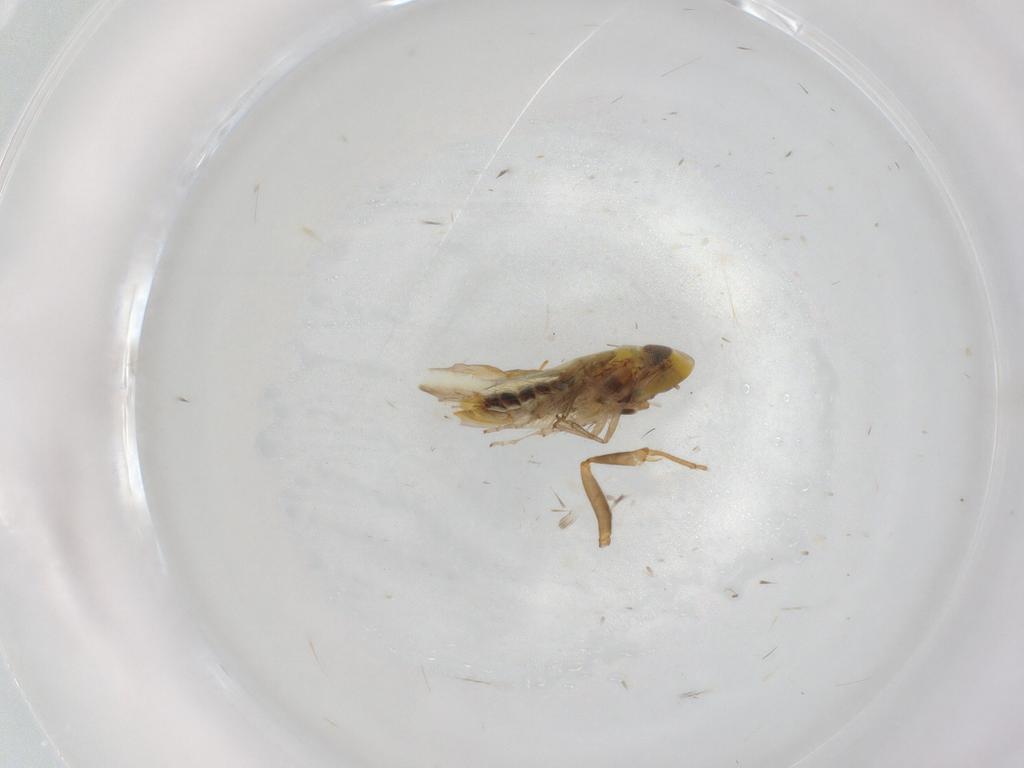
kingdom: Animalia
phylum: Arthropoda
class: Insecta
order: Hemiptera
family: Cicadellidae
